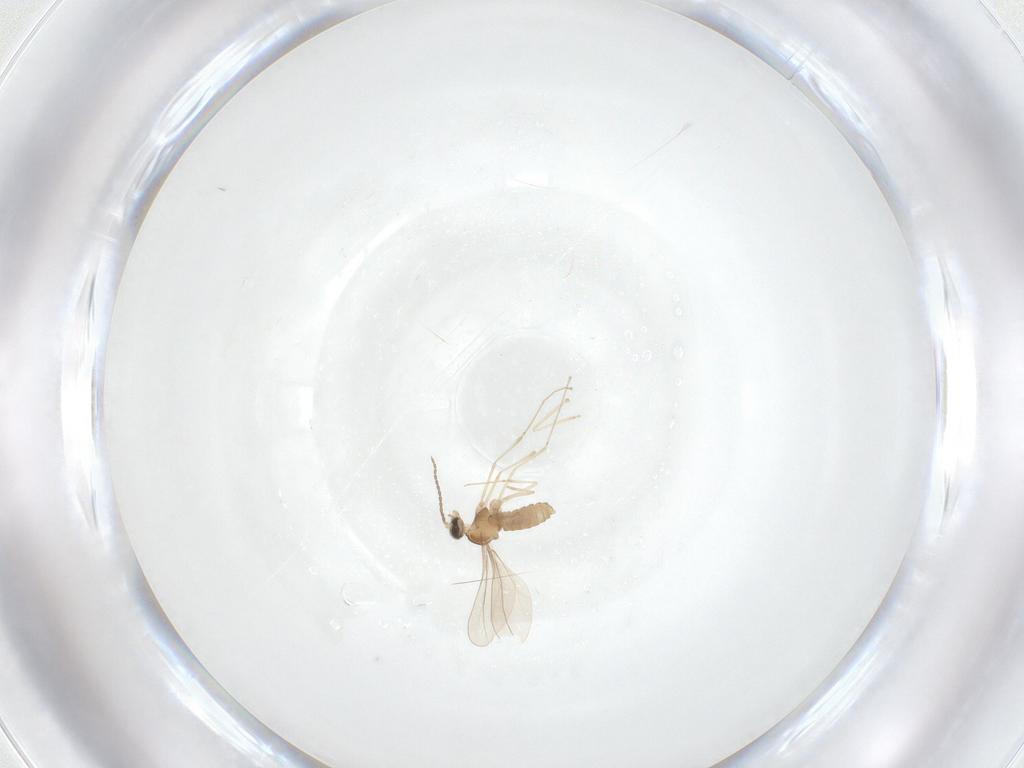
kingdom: Animalia
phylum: Arthropoda
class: Insecta
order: Diptera
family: Cecidomyiidae
